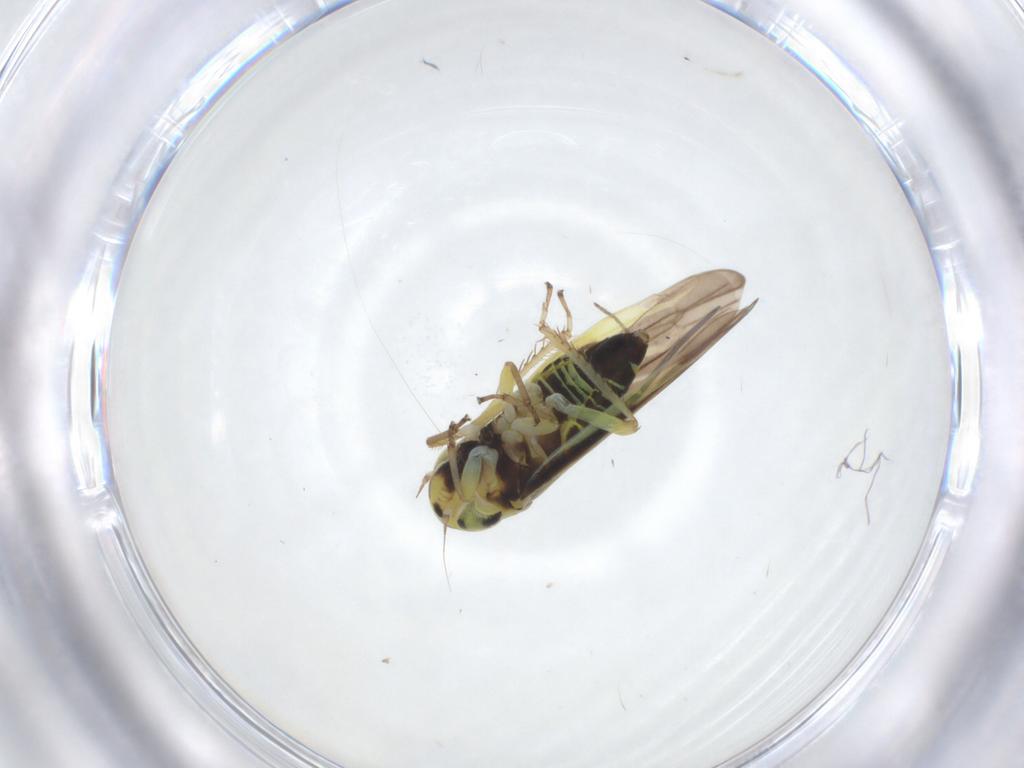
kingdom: Animalia
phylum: Arthropoda
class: Insecta
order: Hemiptera
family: Cicadellidae
